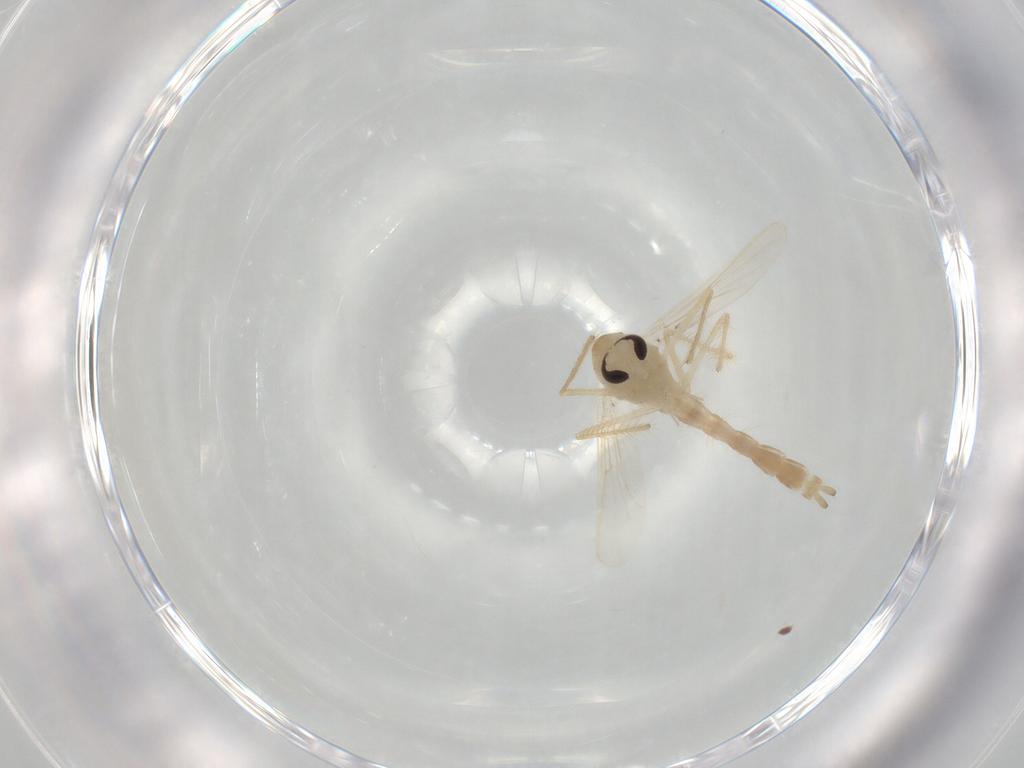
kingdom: Animalia
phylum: Arthropoda
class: Insecta
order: Diptera
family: Chironomidae
